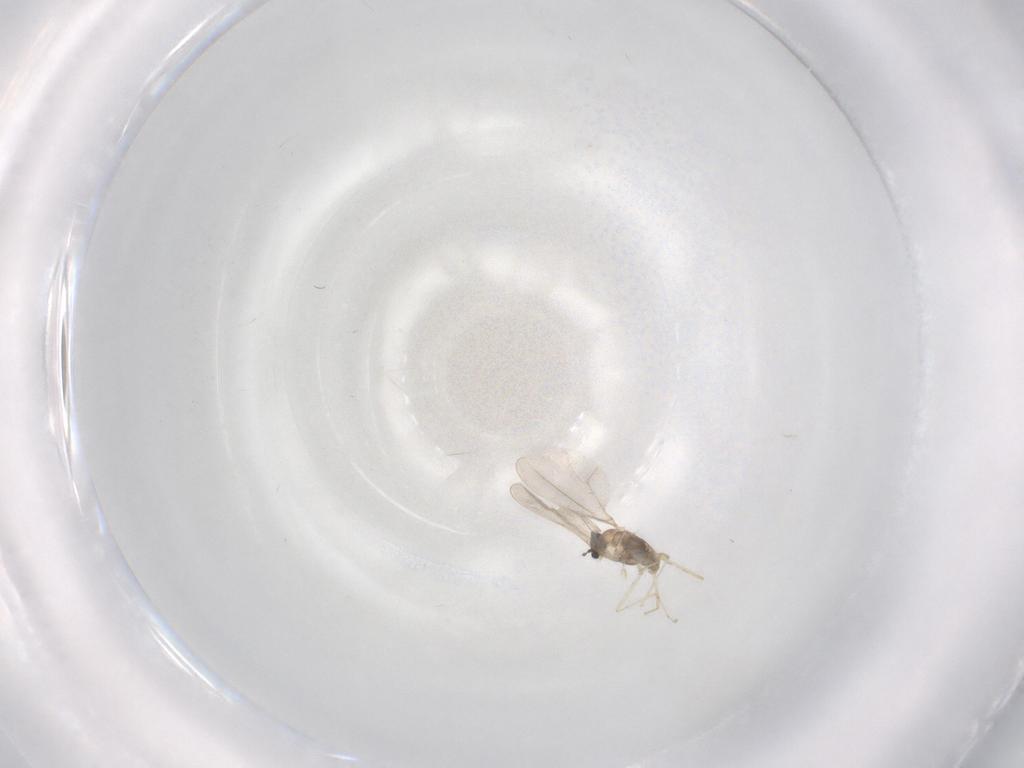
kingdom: Animalia
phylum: Arthropoda
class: Insecta
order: Diptera
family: Cecidomyiidae
